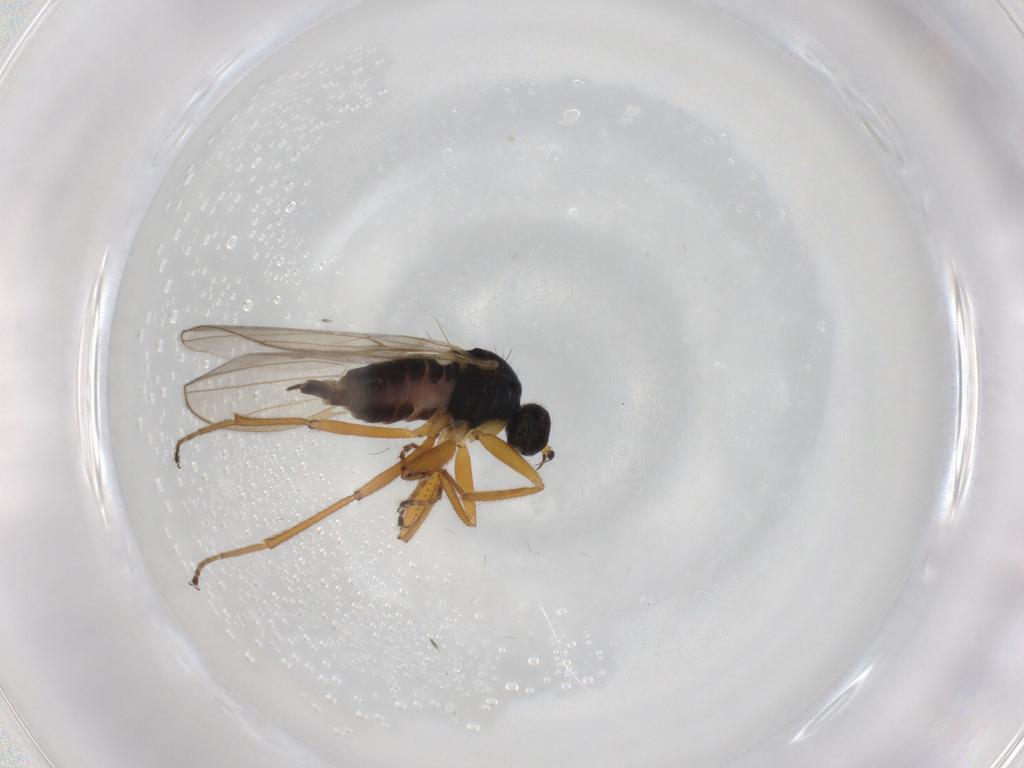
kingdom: Animalia
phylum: Arthropoda
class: Insecta
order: Diptera
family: Hybotidae
